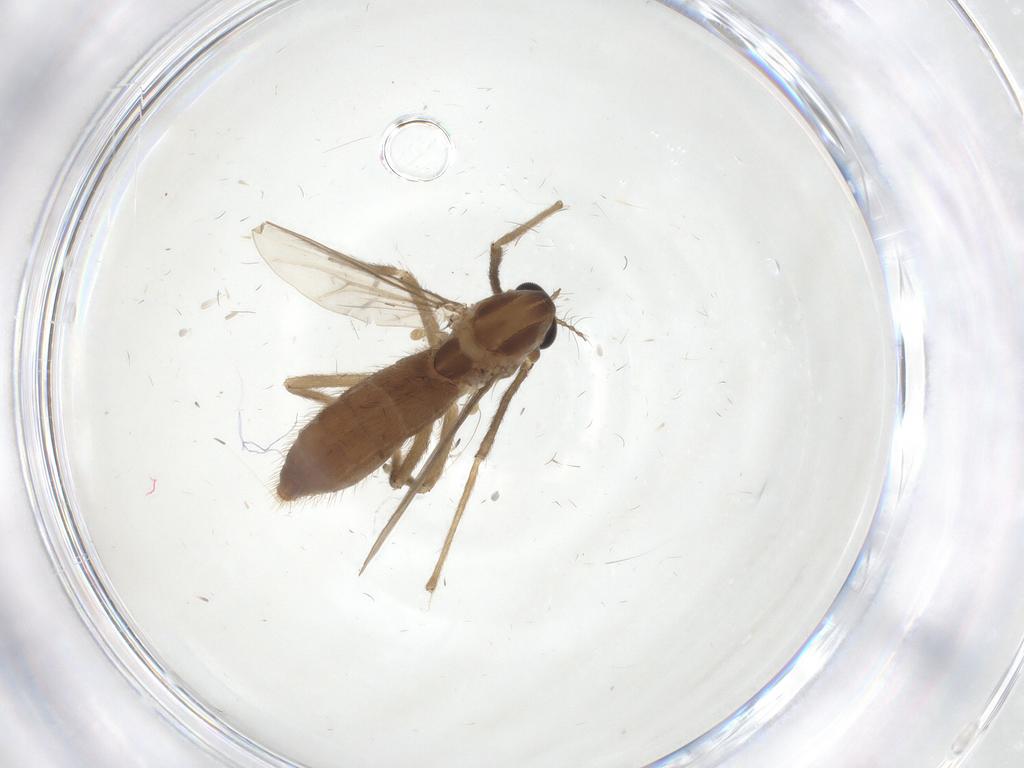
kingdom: Animalia
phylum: Arthropoda
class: Insecta
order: Diptera
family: Chironomidae
